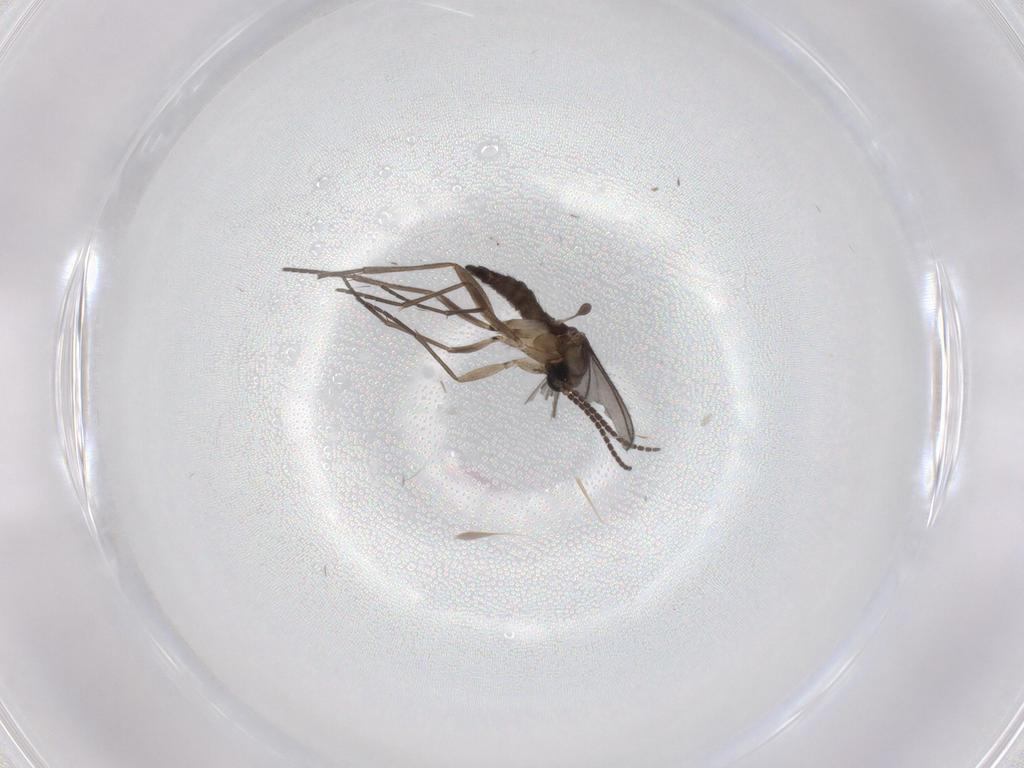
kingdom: Animalia
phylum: Arthropoda
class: Insecta
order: Diptera
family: Sciaridae
